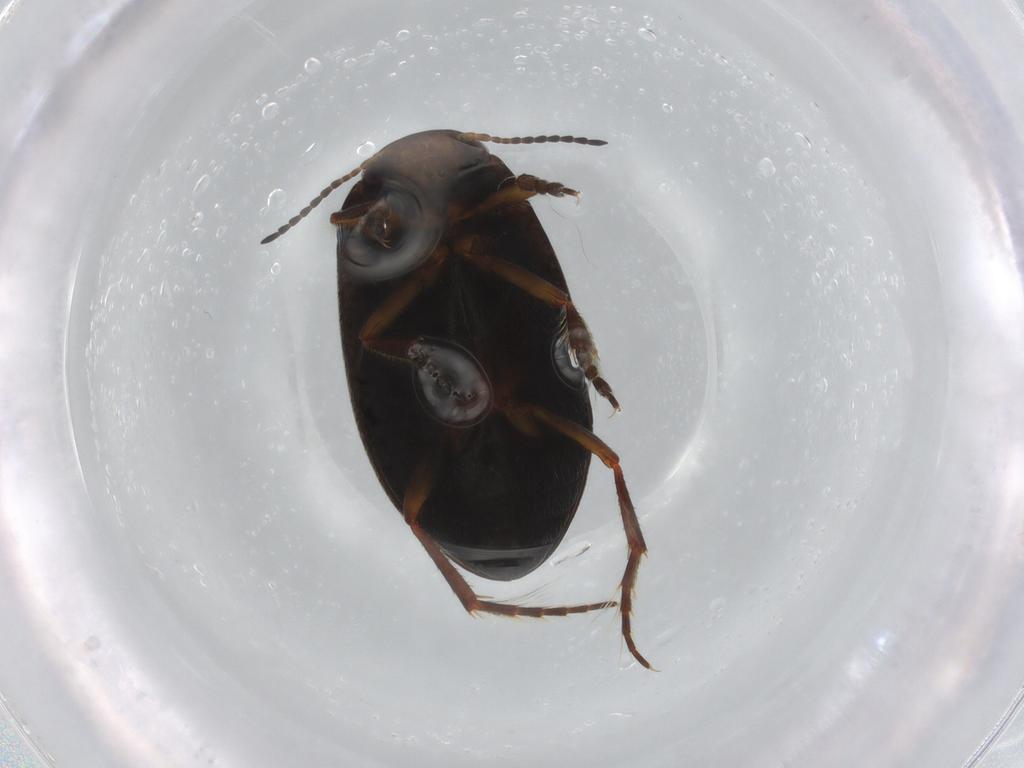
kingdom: Animalia
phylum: Arthropoda
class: Insecta
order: Coleoptera
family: Dytiscidae
